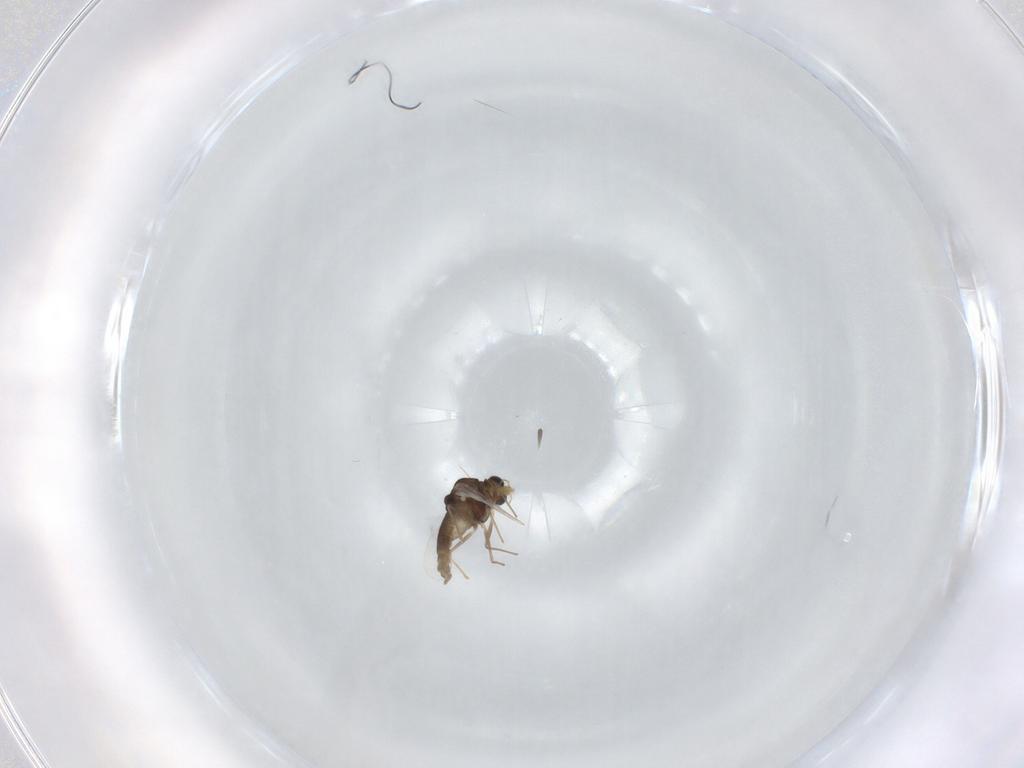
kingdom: Animalia
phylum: Arthropoda
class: Insecta
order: Diptera
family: Chironomidae
